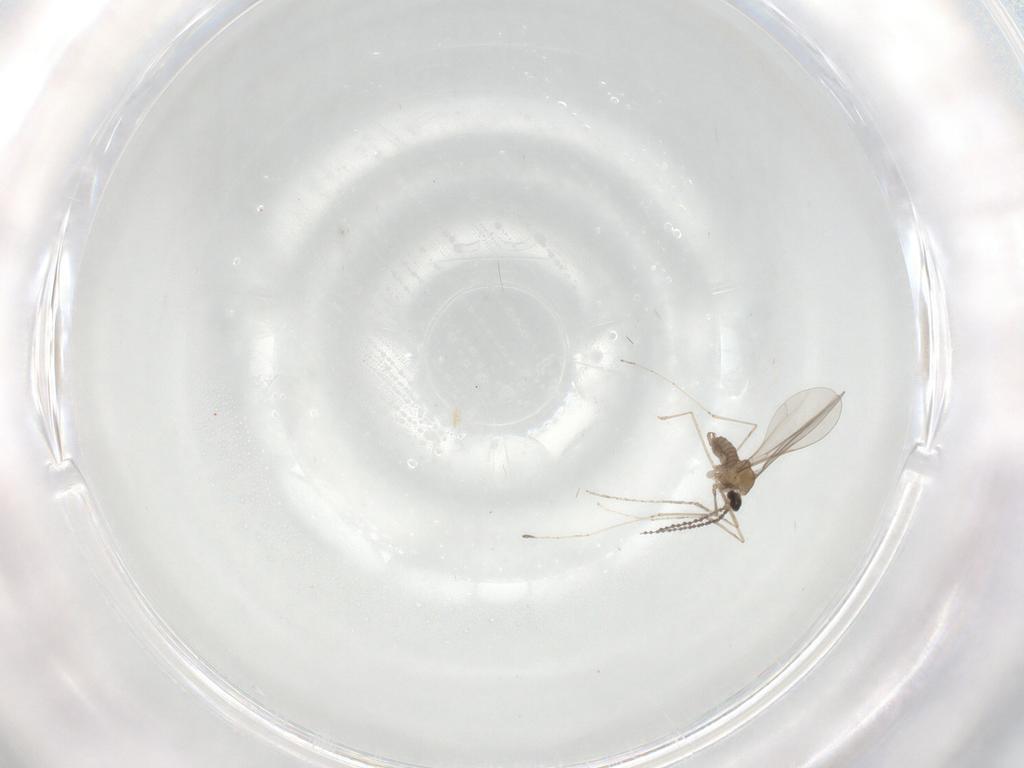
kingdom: Animalia
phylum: Arthropoda
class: Insecta
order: Diptera
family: Cecidomyiidae
